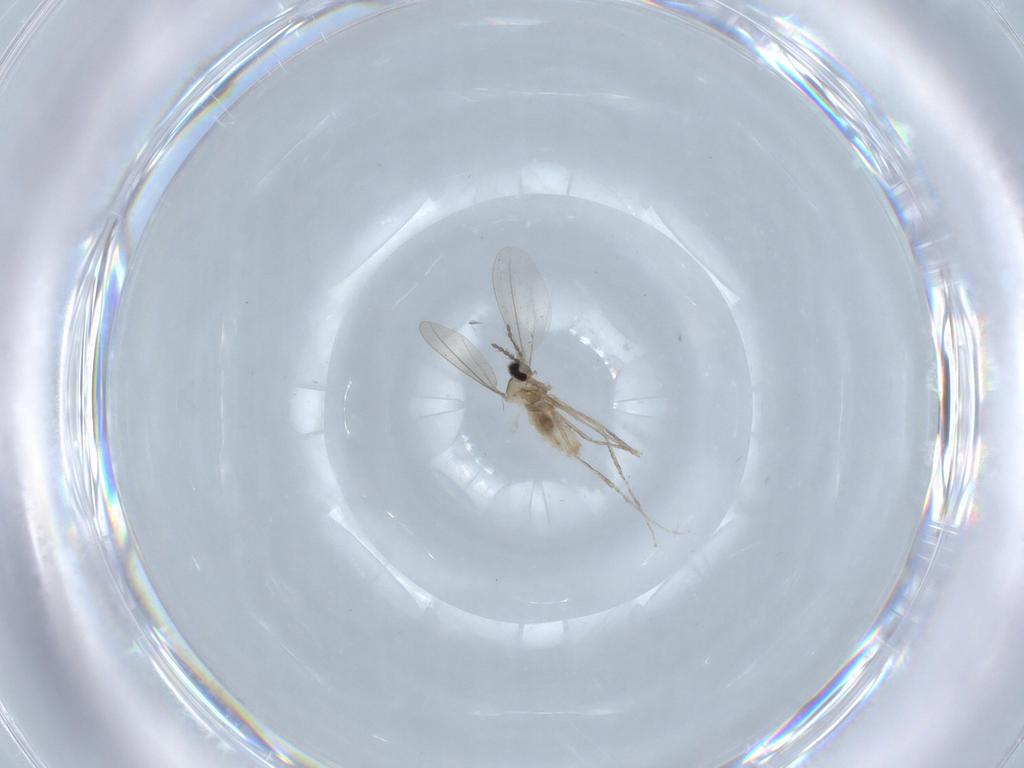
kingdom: Animalia
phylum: Arthropoda
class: Insecta
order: Diptera
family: Cecidomyiidae
